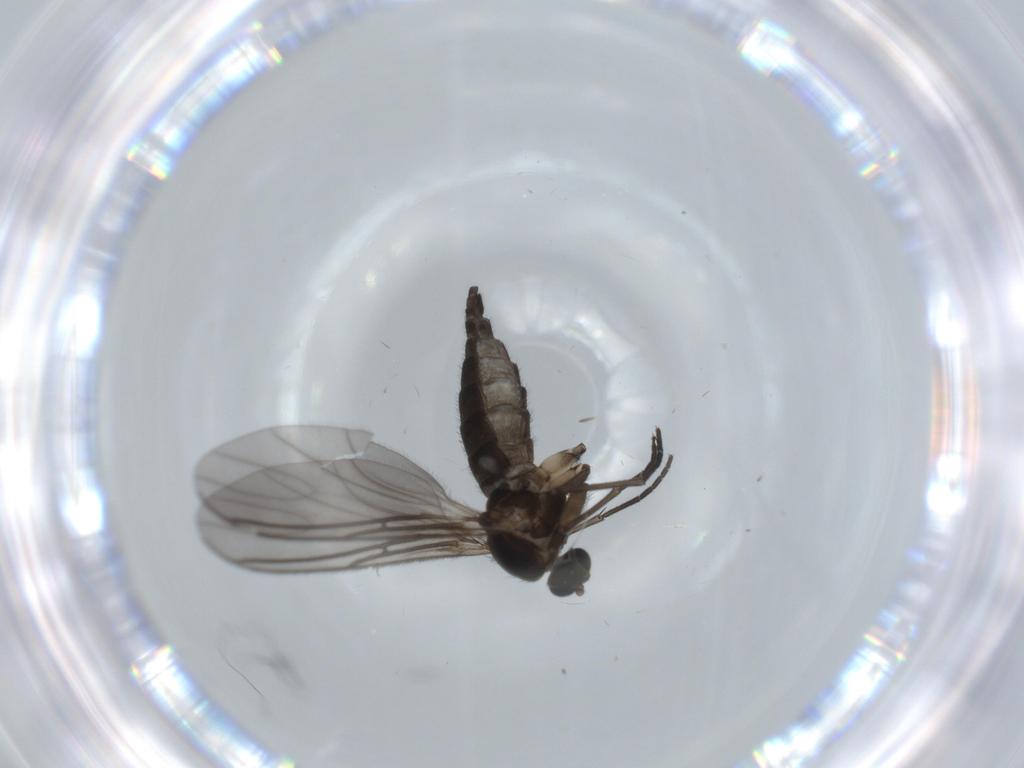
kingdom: Animalia
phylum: Arthropoda
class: Insecta
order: Diptera
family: Sciaridae
